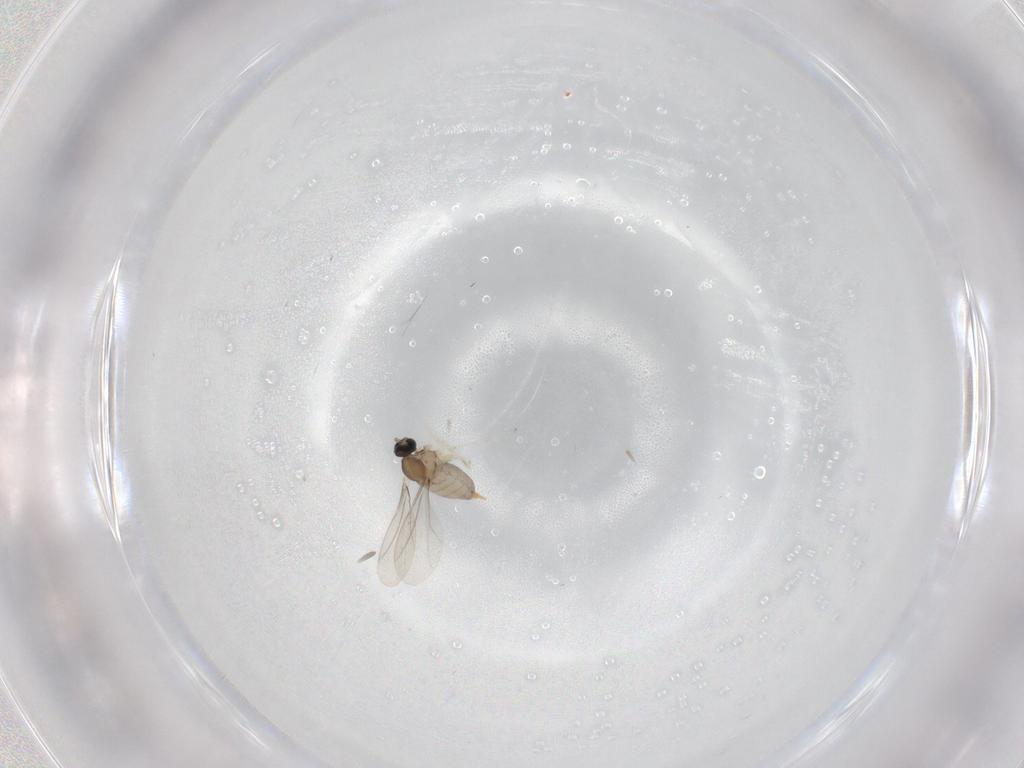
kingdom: Animalia
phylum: Arthropoda
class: Insecta
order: Diptera
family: Cecidomyiidae
